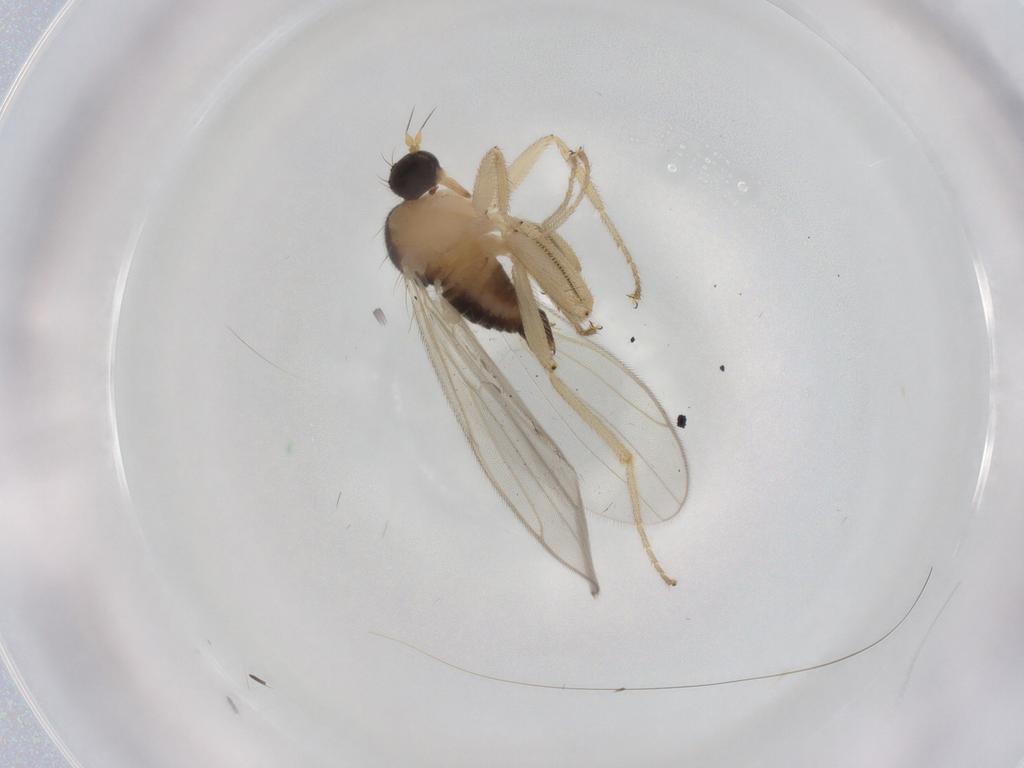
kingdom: Animalia
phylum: Arthropoda
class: Insecta
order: Diptera
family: Hybotidae
